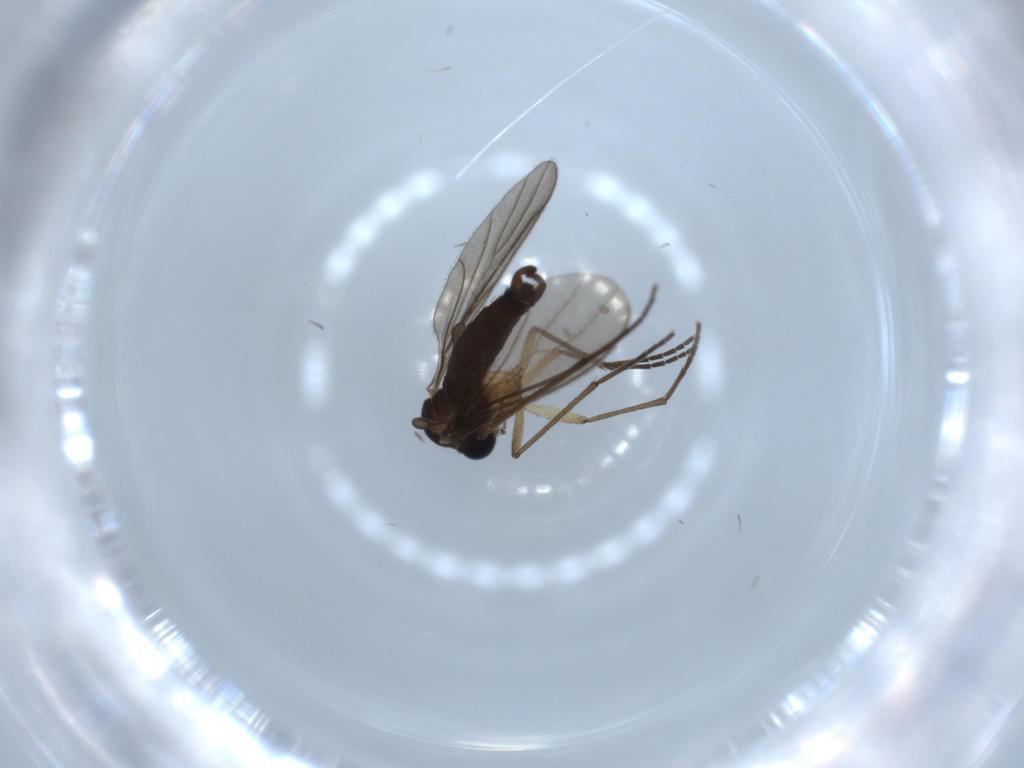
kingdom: Animalia
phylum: Arthropoda
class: Insecta
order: Diptera
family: Sciaridae
